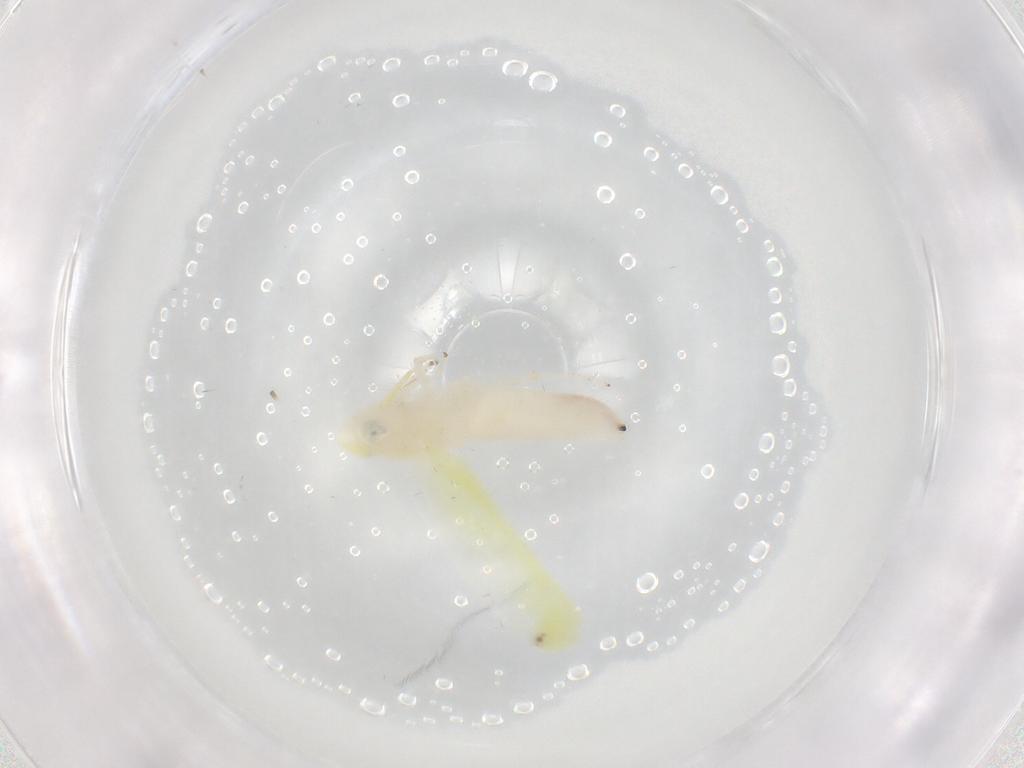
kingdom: Animalia
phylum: Arthropoda
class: Insecta
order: Hemiptera
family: Cicadellidae
